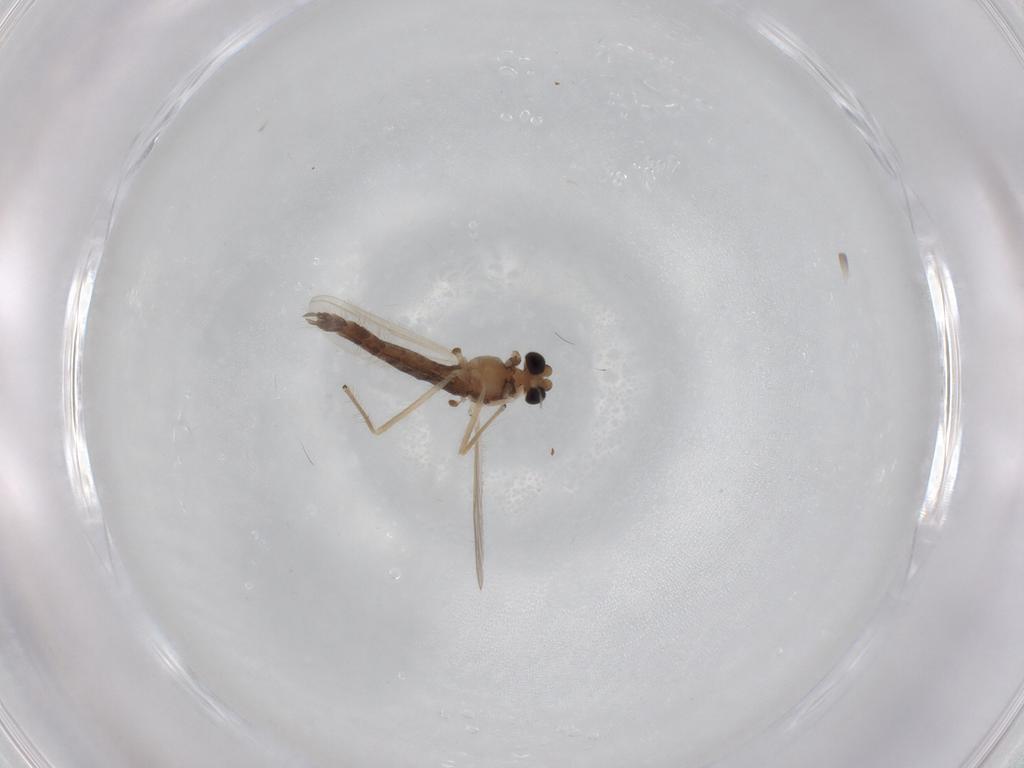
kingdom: Animalia
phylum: Arthropoda
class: Insecta
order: Diptera
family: Chironomidae
